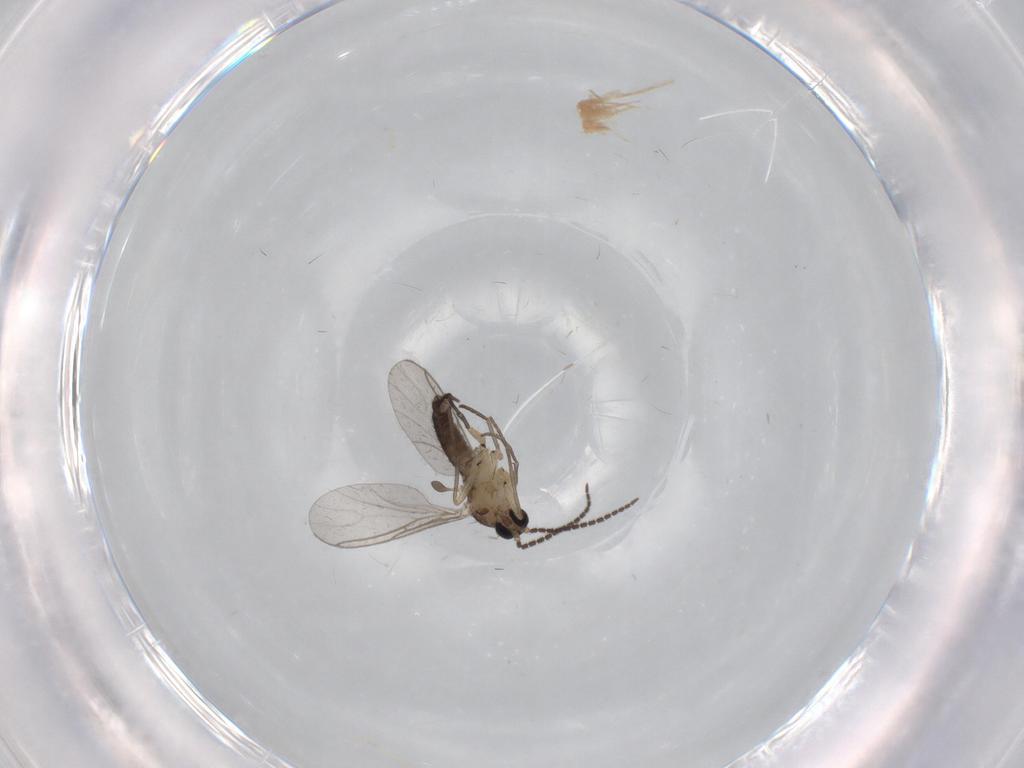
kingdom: Animalia
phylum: Arthropoda
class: Insecta
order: Diptera
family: Sciaridae
